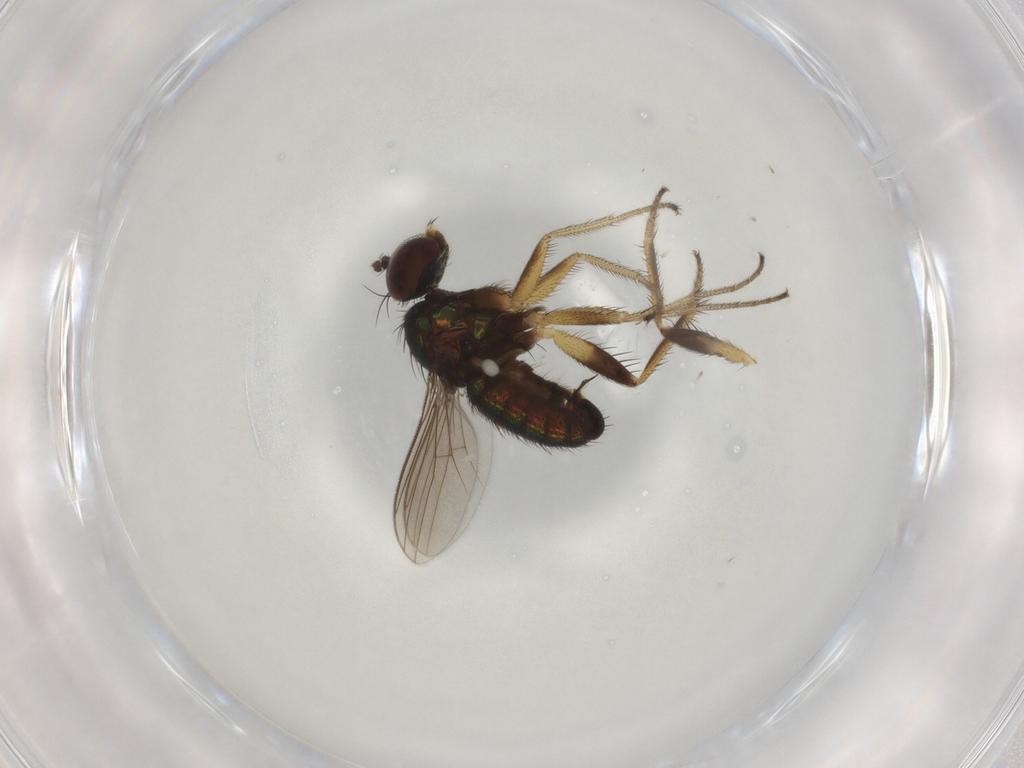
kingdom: Animalia
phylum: Arthropoda
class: Insecta
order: Diptera
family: Dolichopodidae
